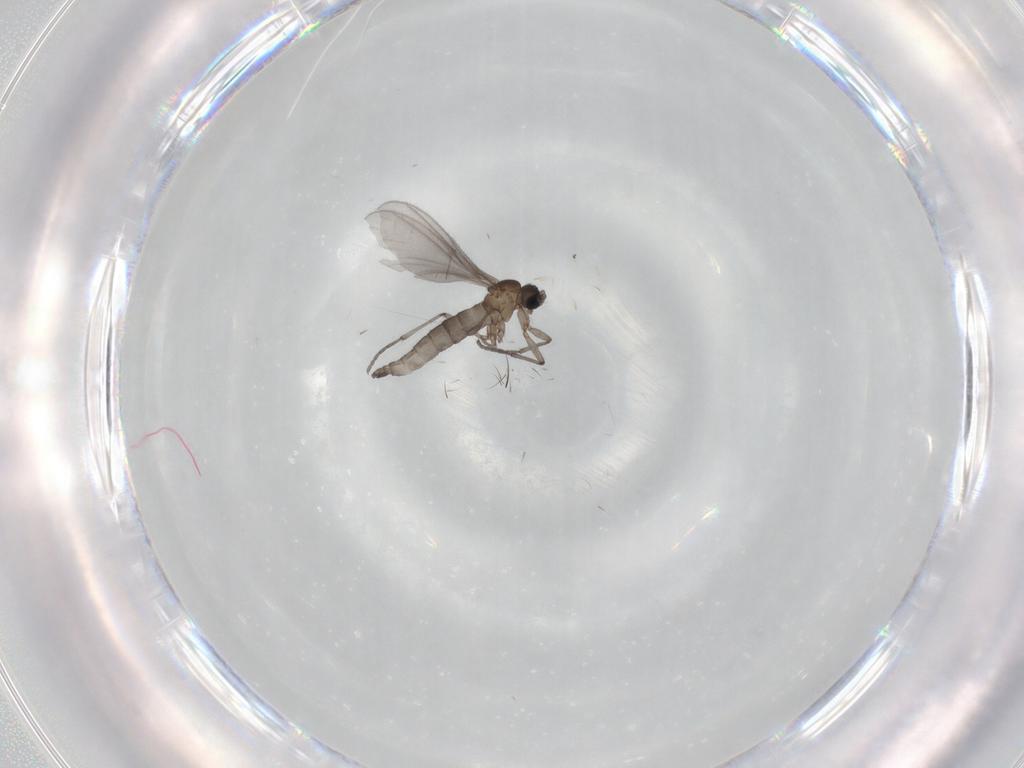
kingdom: Animalia
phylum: Arthropoda
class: Insecta
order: Diptera
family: Sciaridae
